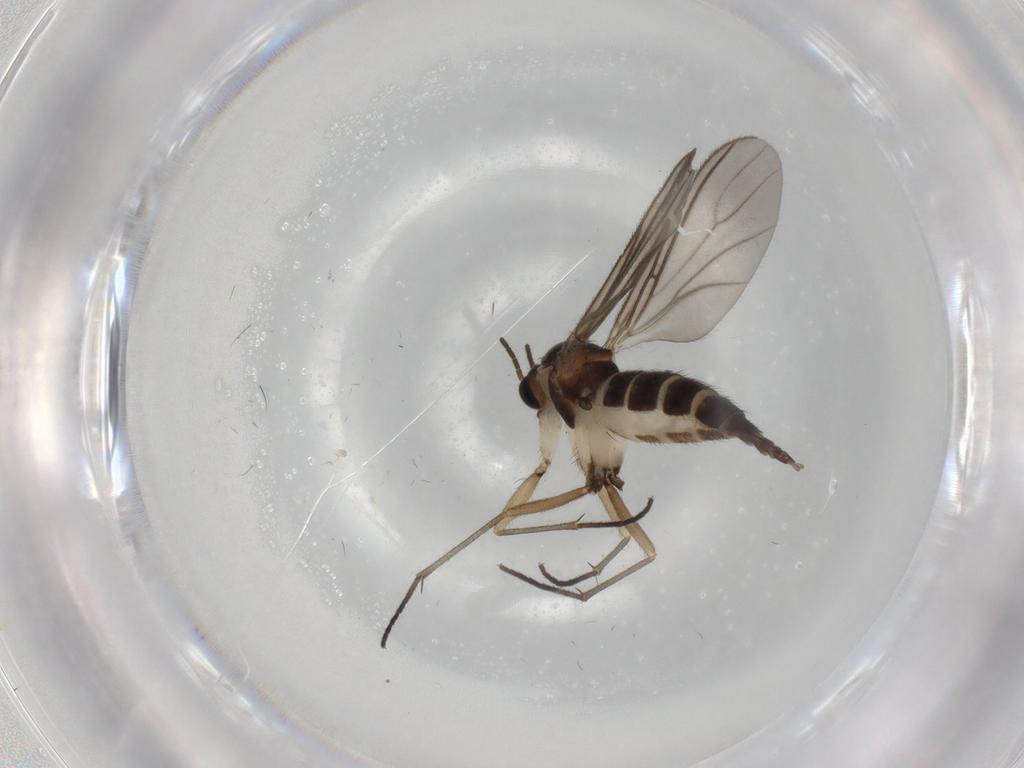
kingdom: Animalia
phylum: Arthropoda
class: Insecta
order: Diptera
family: Sciaridae
